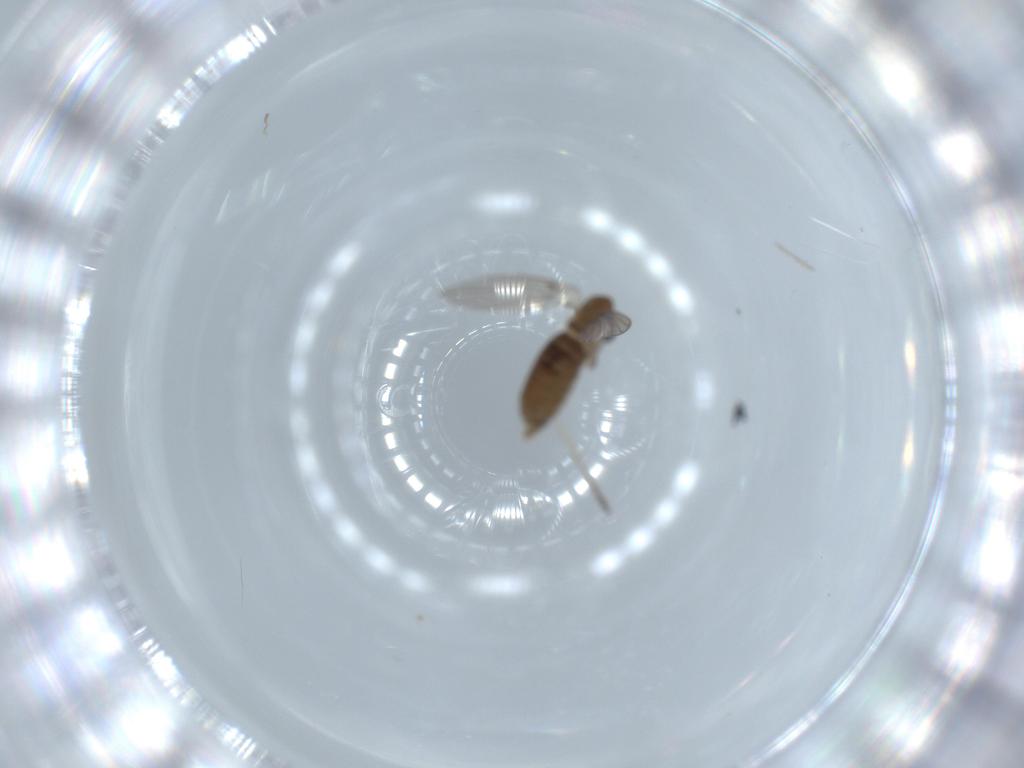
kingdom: Animalia
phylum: Arthropoda
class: Insecta
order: Diptera
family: Psychodidae
